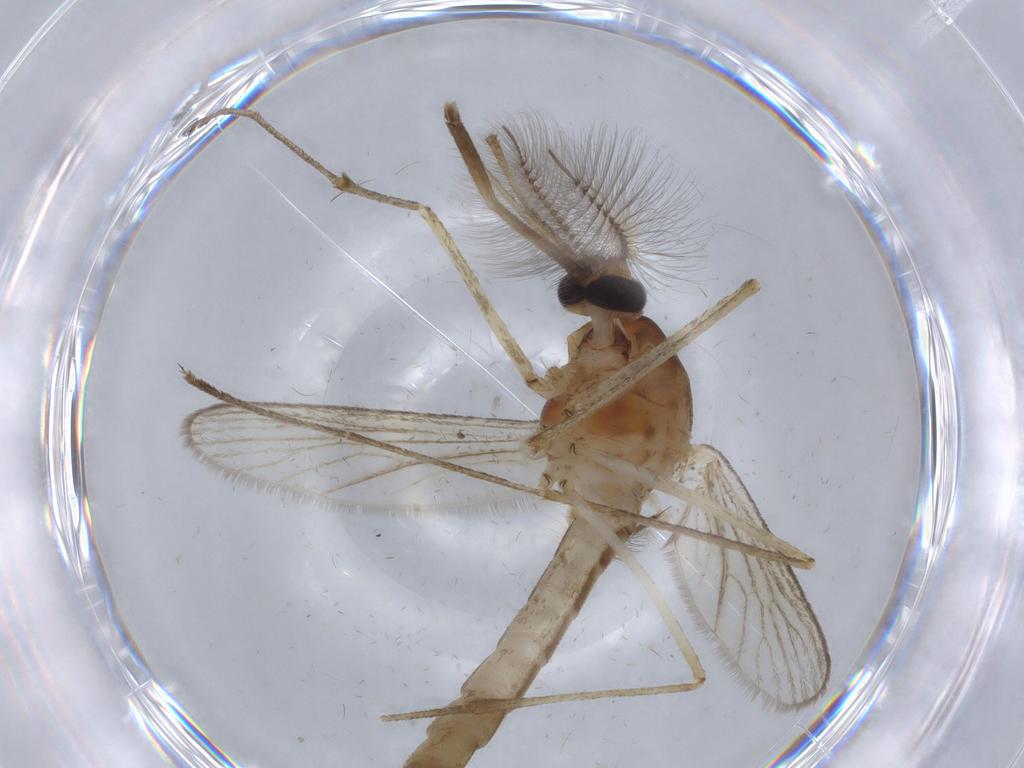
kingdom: Animalia
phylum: Arthropoda
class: Insecta
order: Diptera
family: Ceratopogonidae
